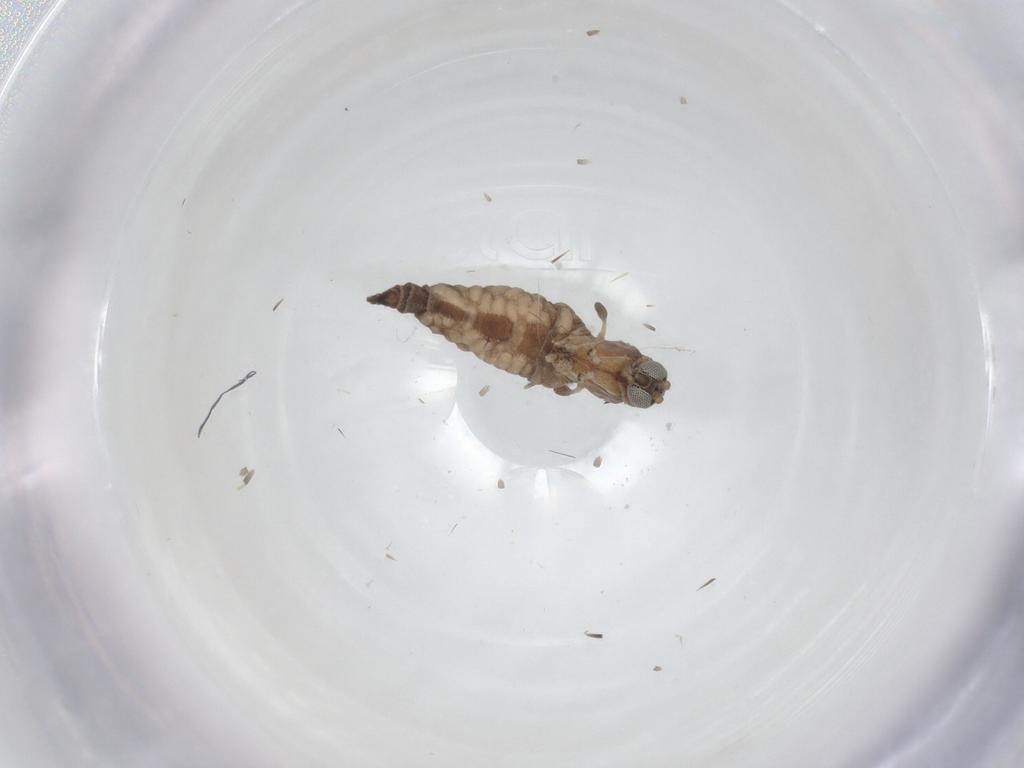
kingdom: Animalia
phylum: Arthropoda
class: Insecta
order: Diptera
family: Sciaridae
